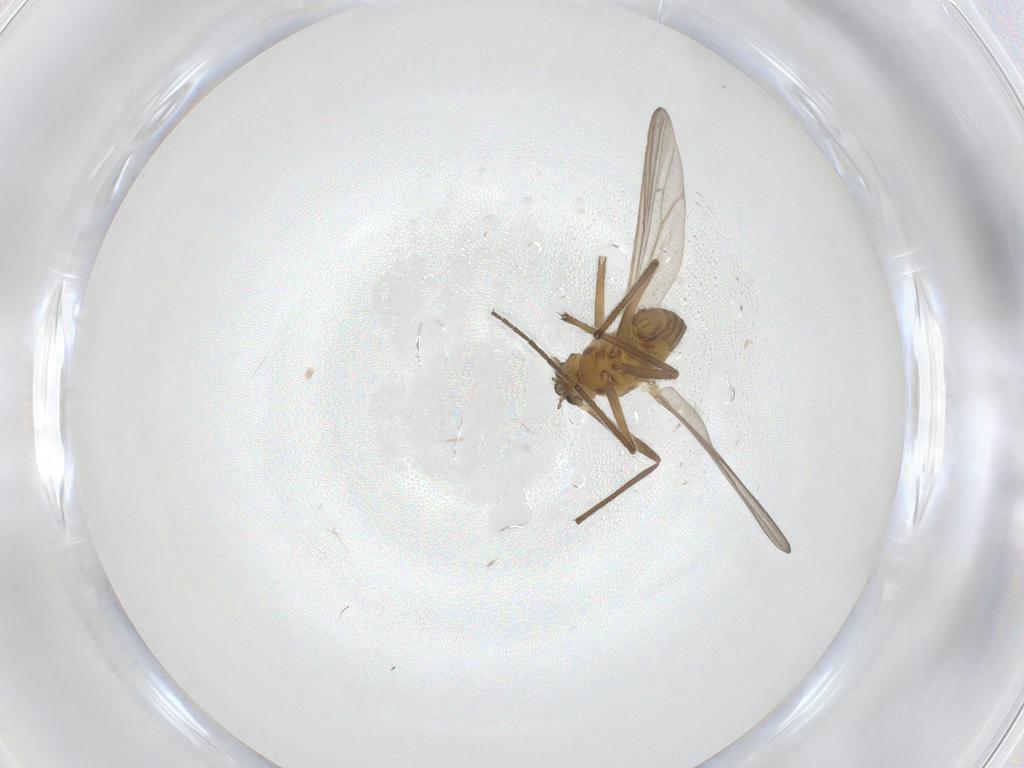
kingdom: Animalia
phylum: Arthropoda
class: Insecta
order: Diptera
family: Chironomidae
